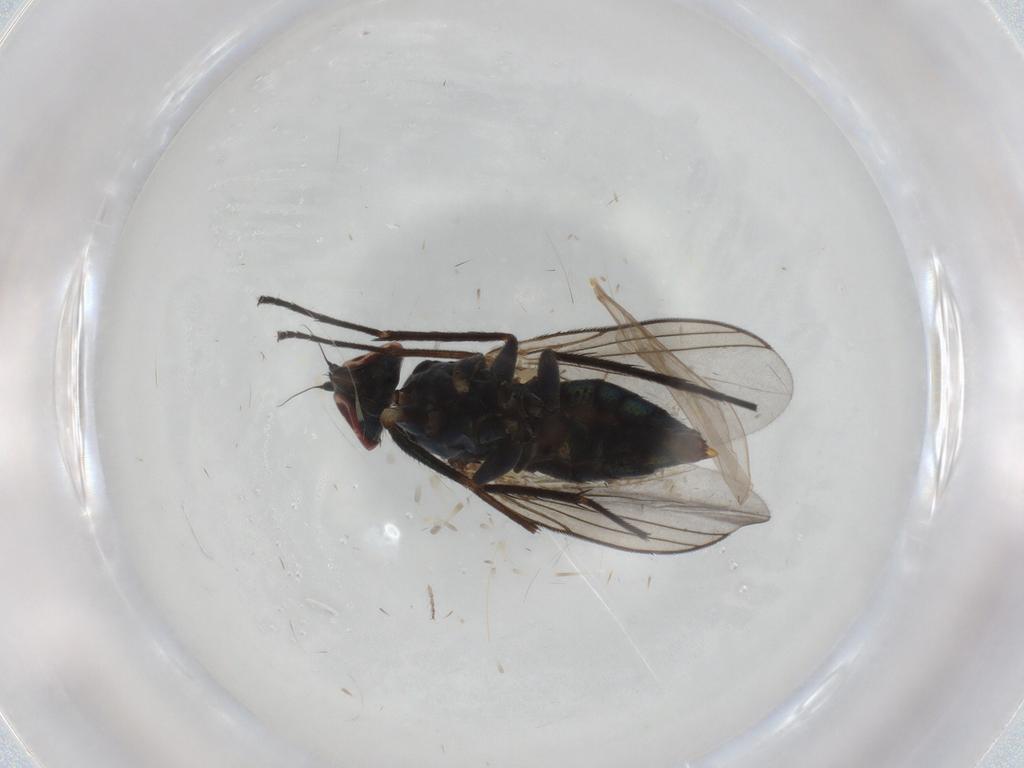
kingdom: Animalia
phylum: Arthropoda
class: Insecta
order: Diptera
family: Dolichopodidae
